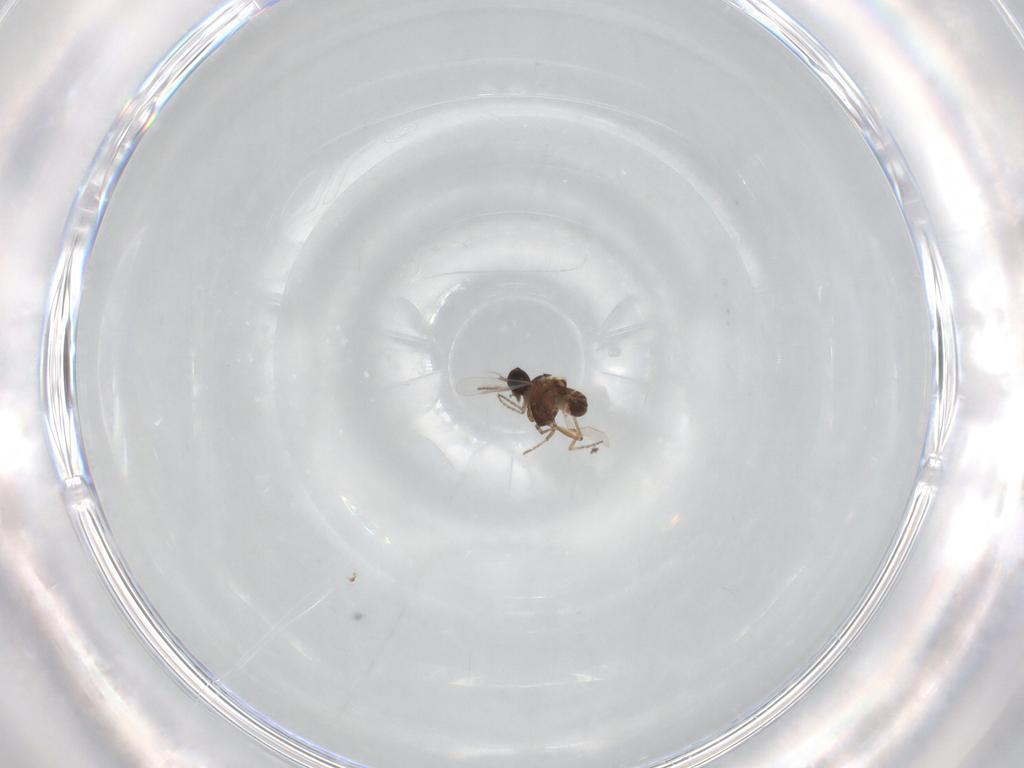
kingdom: Animalia
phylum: Arthropoda
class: Insecta
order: Diptera
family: Ceratopogonidae
